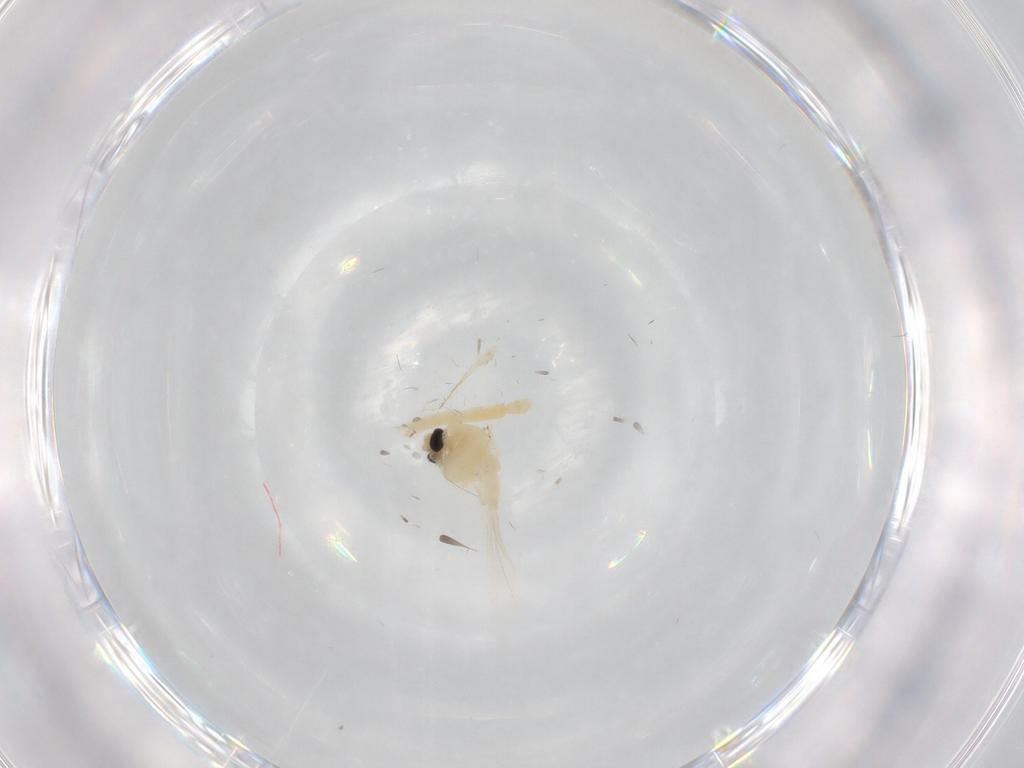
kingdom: Animalia
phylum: Arthropoda
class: Insecta
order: Diptera
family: Chironomidae
